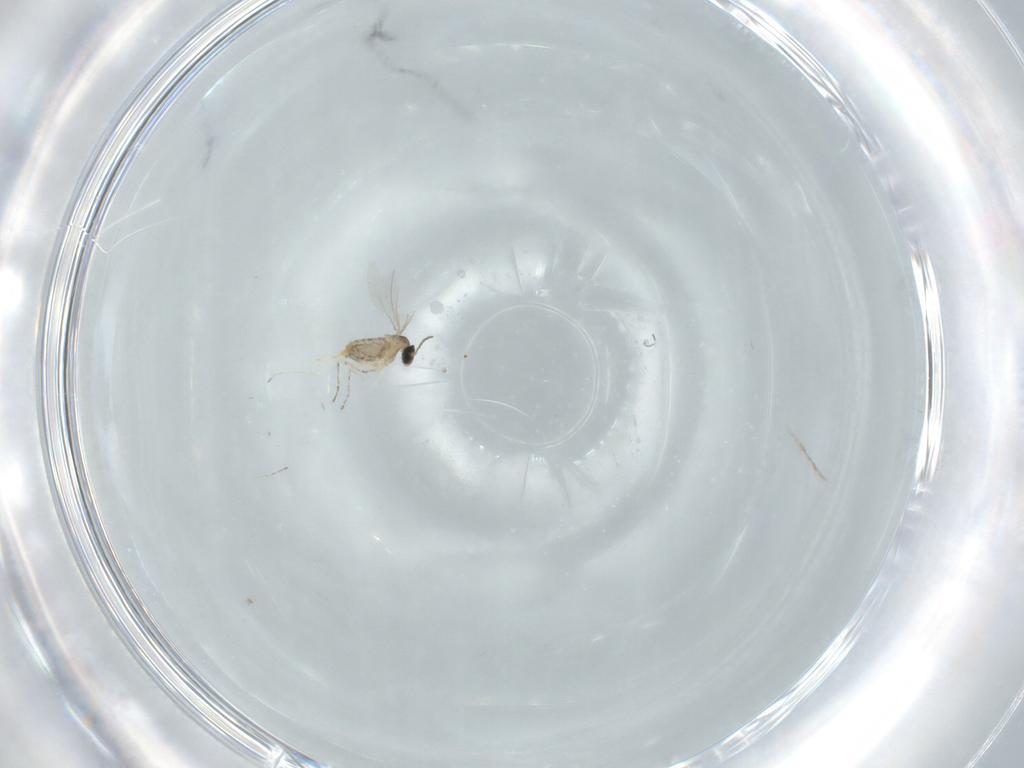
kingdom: Animalia
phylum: Arthropoda
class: Insecta
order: Diptera
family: Cecidomyiidae
